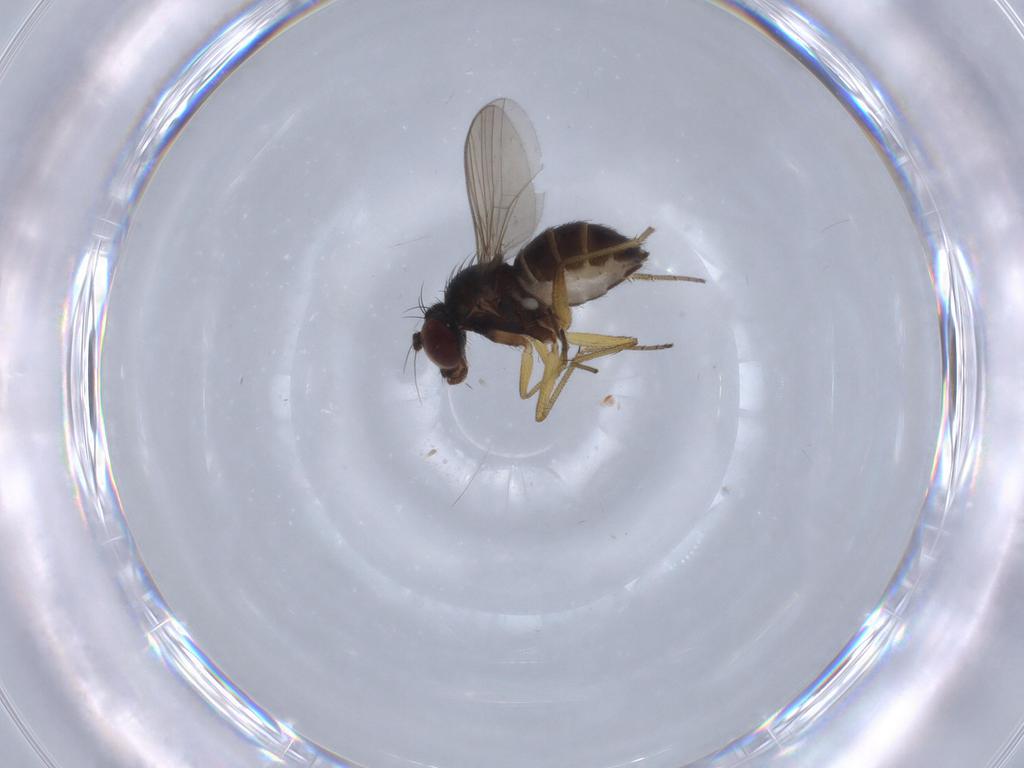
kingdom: Animalia
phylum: Arthropoda
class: Insecta
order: Diptera
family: Dolichopodidae
